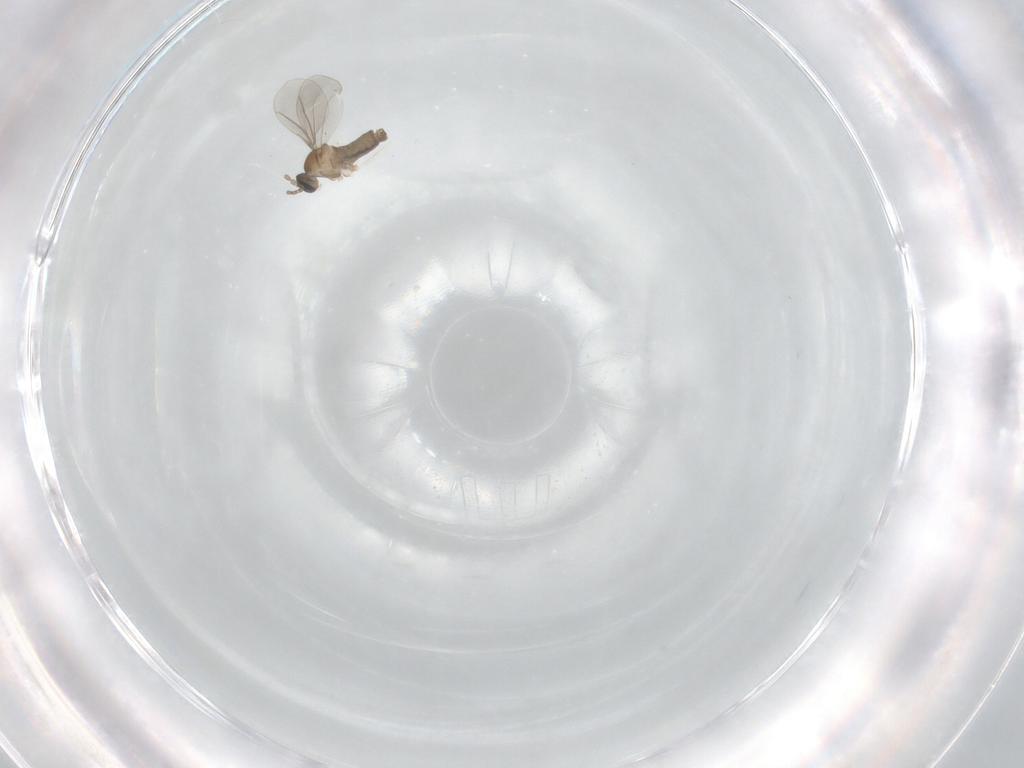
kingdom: Animalia
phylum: Arthropoda
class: Insecta
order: Diptera
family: Cecidomyiidae
